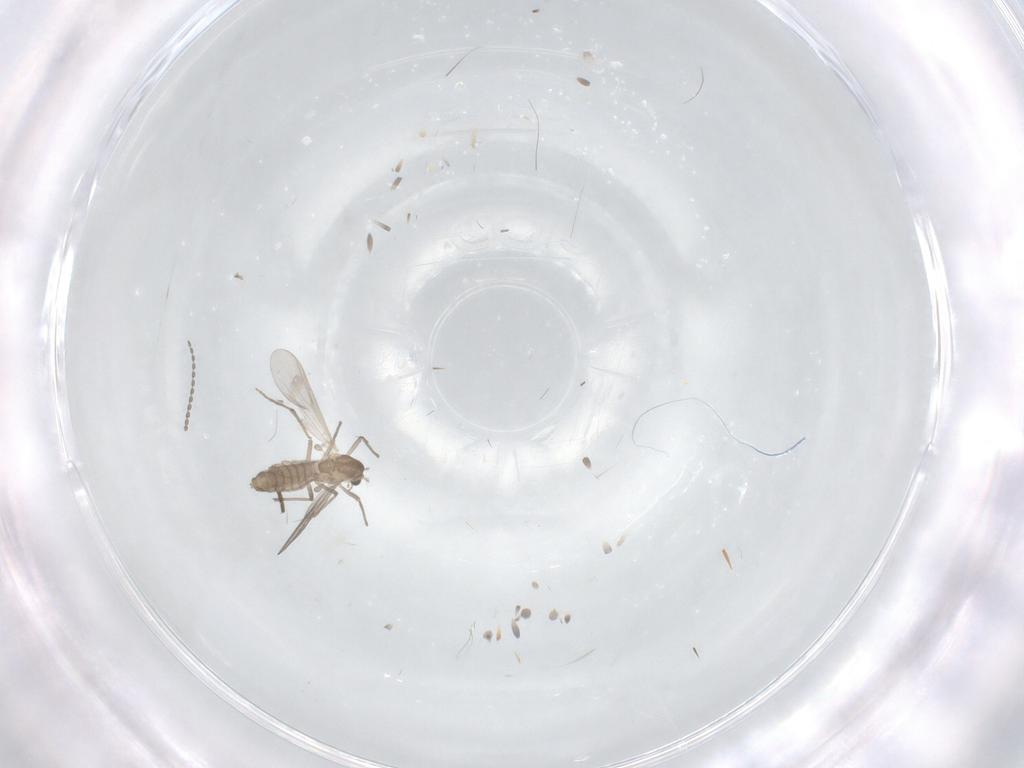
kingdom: Animalia
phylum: Arthropoda
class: Insecta
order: Diptera
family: Chironomidae
